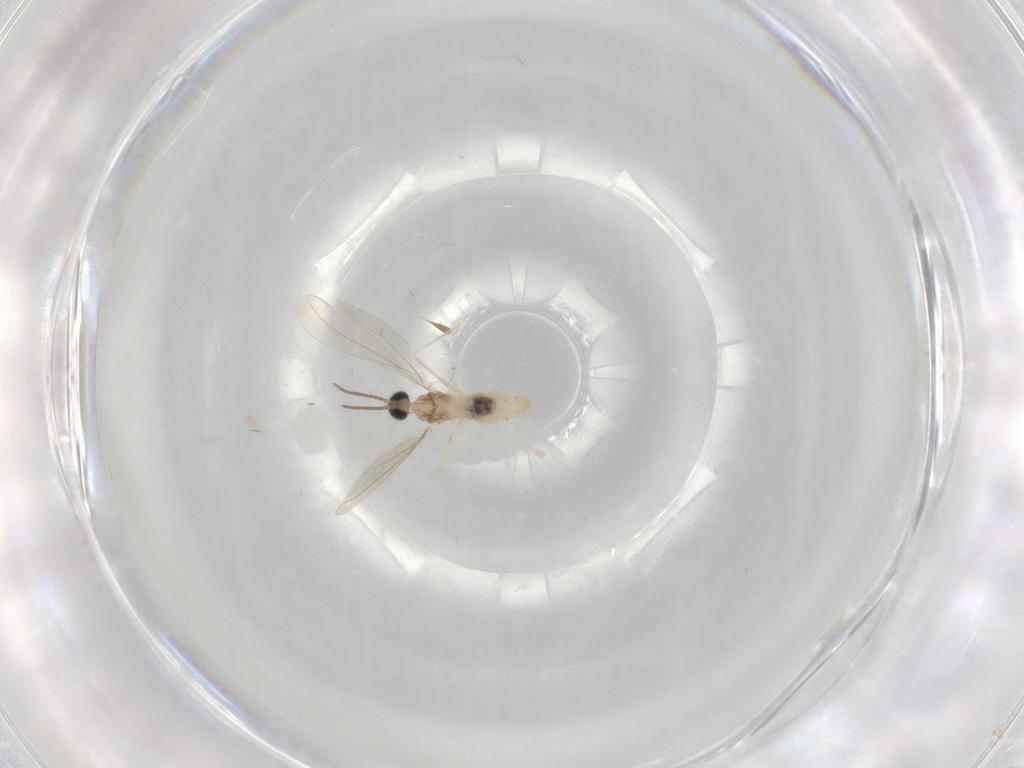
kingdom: Animalia
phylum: Arthropoda
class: Insecta
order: Diptera
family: Cecidomyiidae
